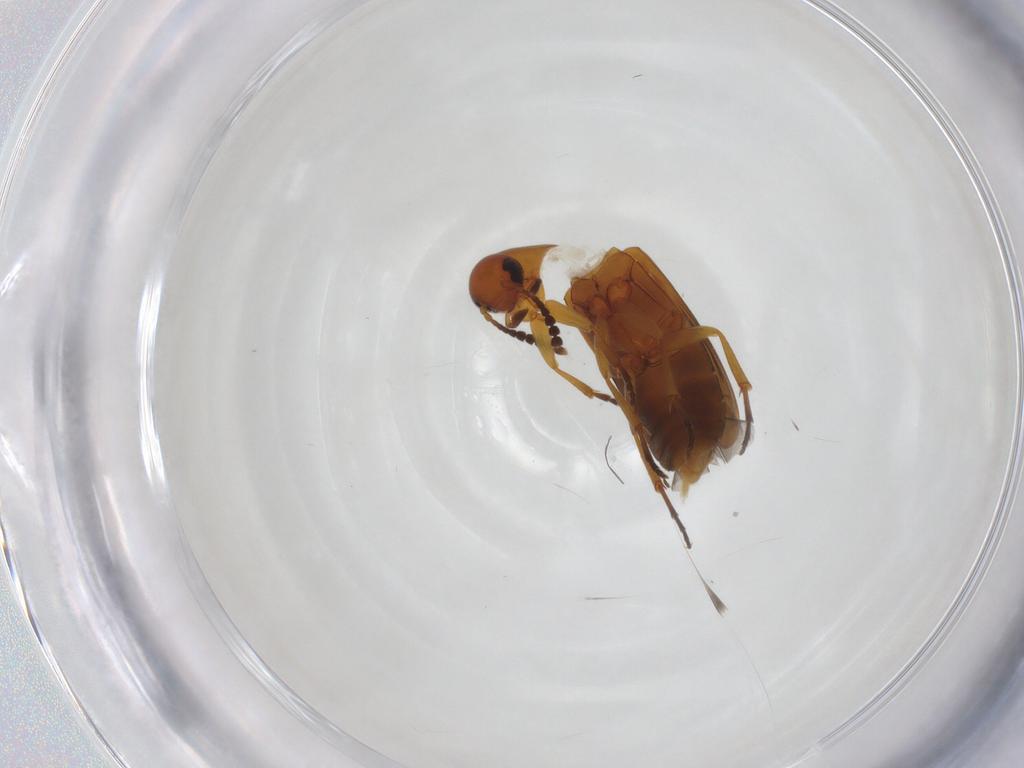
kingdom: Animalia
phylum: Arthropoda
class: Insecta
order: Coleoptera
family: Scraptiidae
